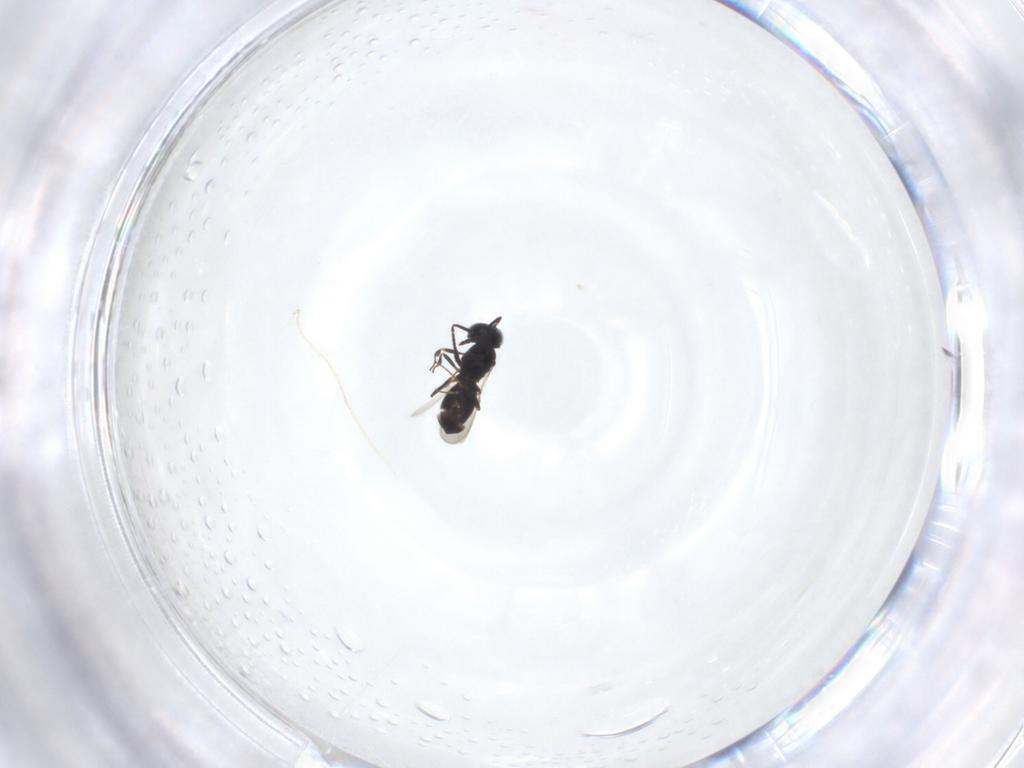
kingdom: Animalia
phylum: Arthropoda
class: Insecta
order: Hymenoptera
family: Scelionidae
